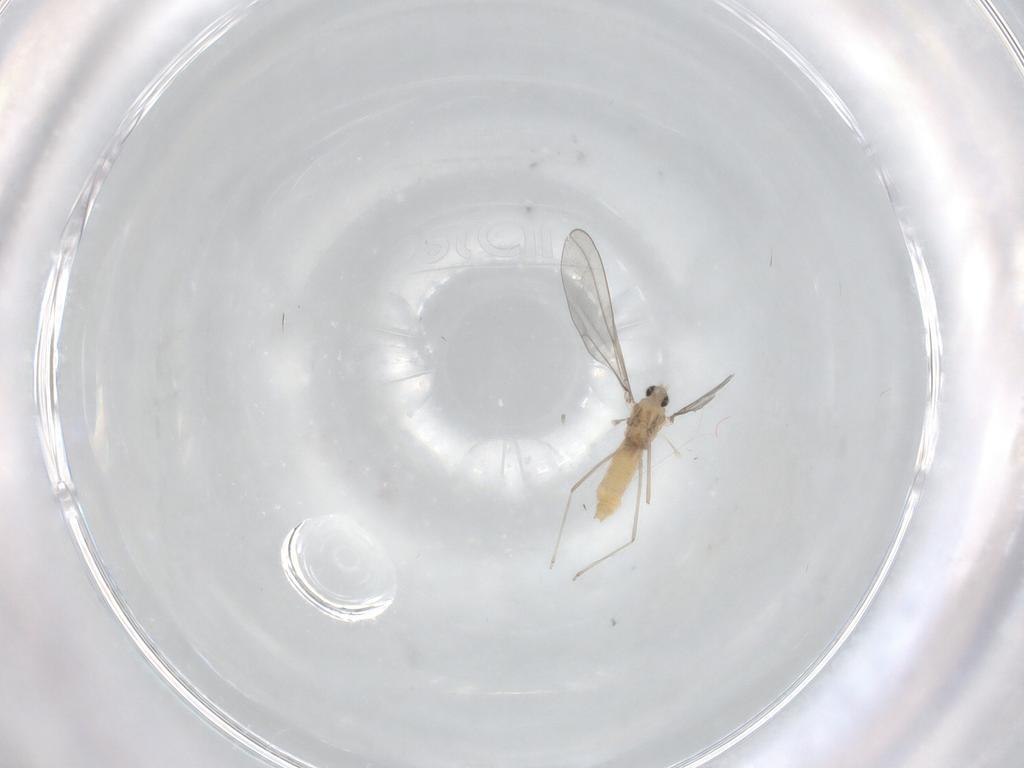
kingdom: Animalia
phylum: Arthropoda
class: Insecta
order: Diptera
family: Cecidomyiidae
